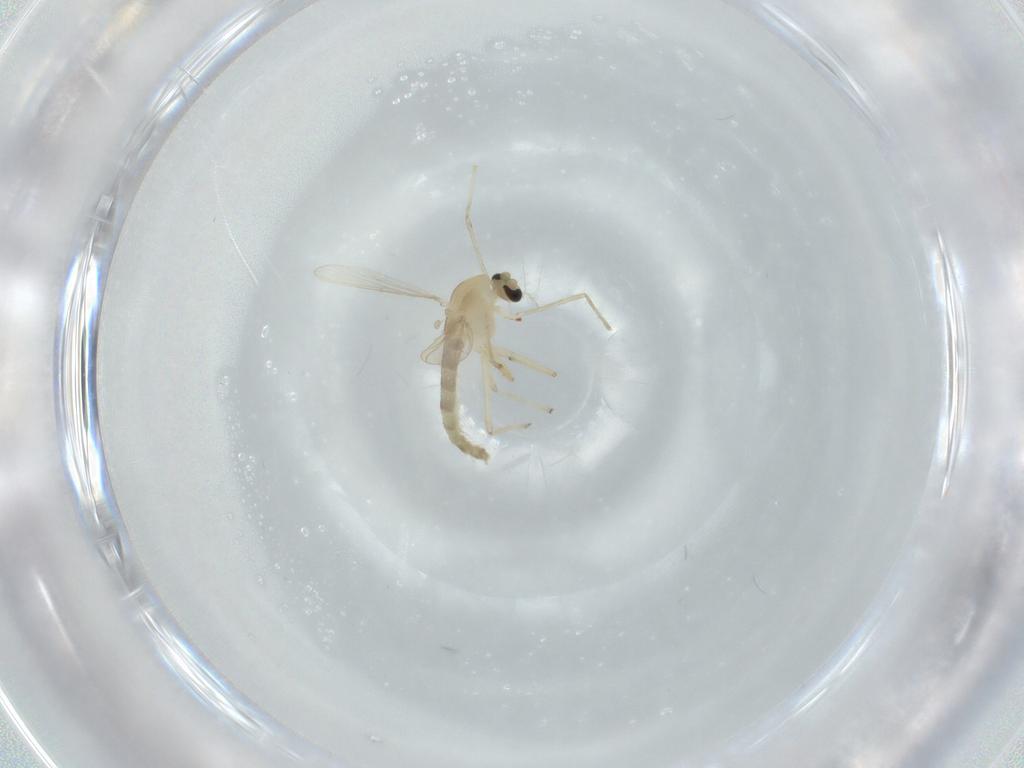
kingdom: Animalia
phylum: Arthropoda
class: Insecta
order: Diptera
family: Chironomidae
